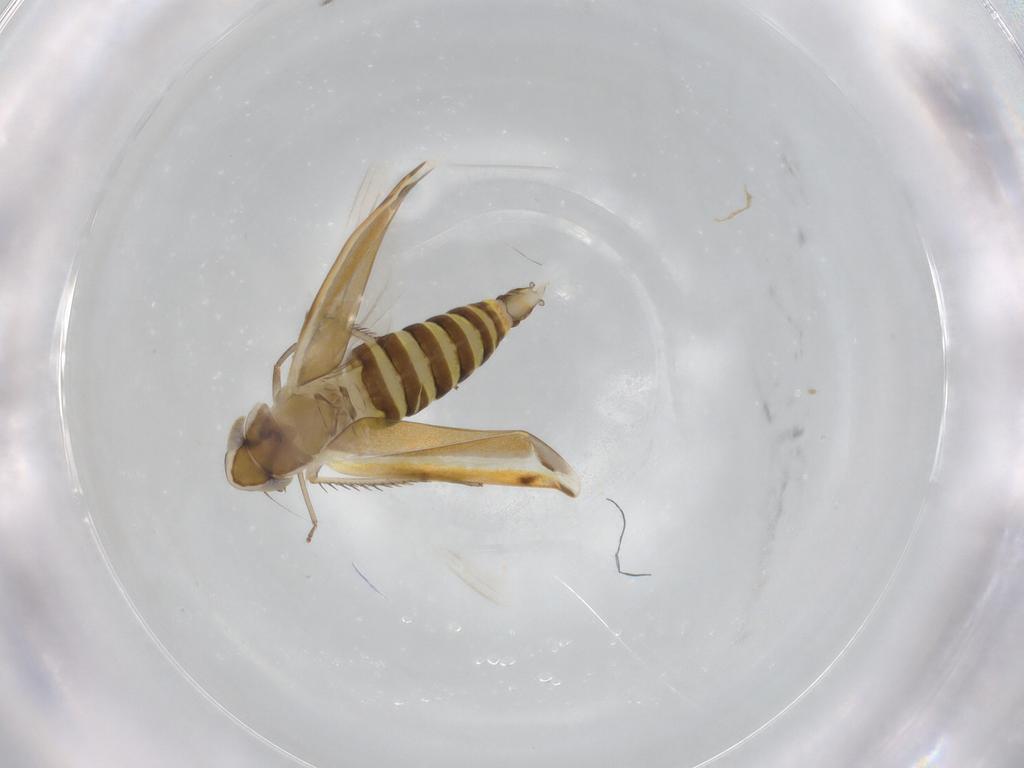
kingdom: Animalia
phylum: Arthropoda
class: Insecta
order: Hemiptera
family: Cicadellidae
